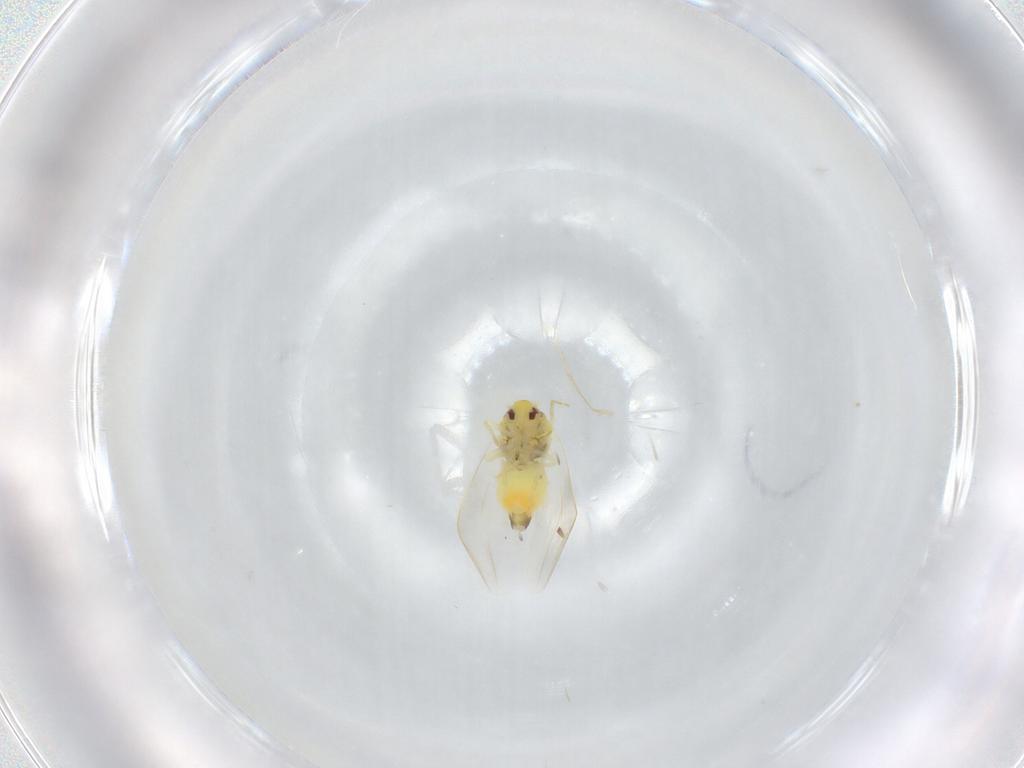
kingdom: Animalia
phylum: Arthropoda
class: Insecta
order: Hemiptera
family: Aleyrodidae
